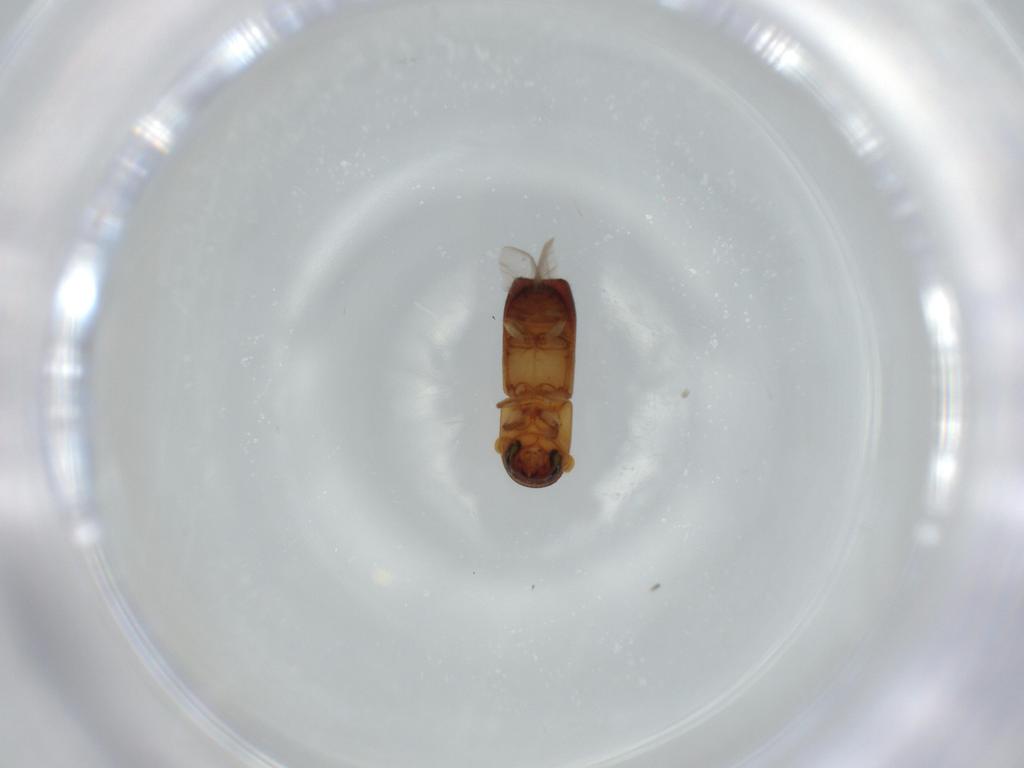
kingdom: Animalia
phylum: Arthropoda
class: Insecta
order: Coleoptera
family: Curculionidae
